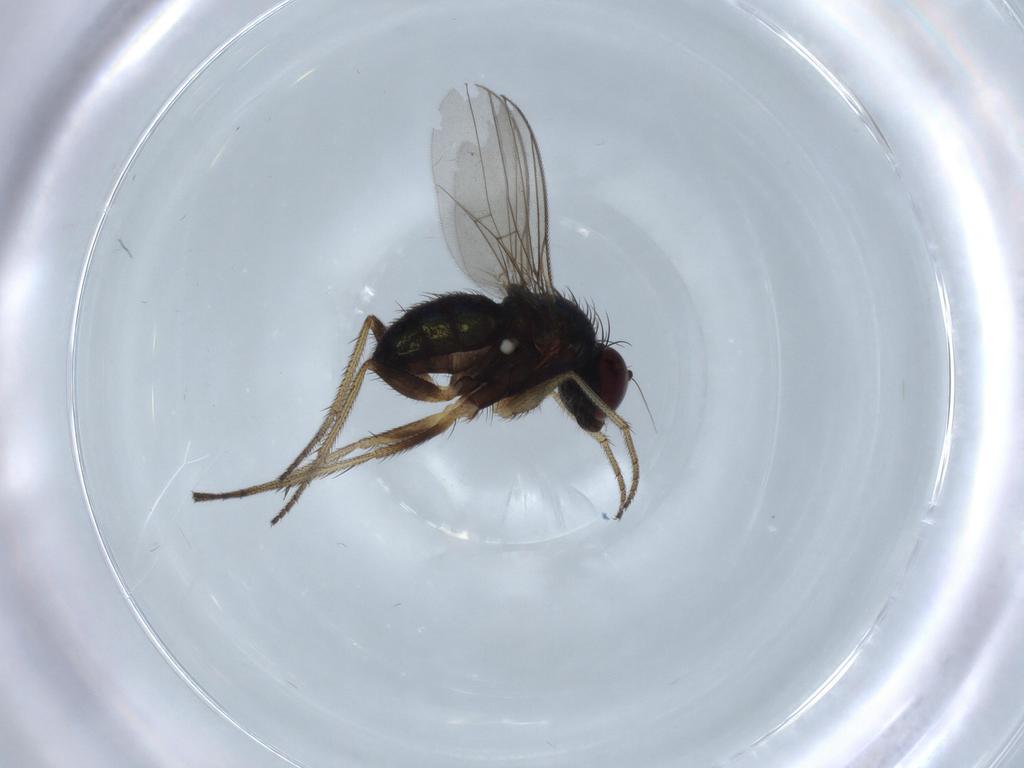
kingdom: Animalia
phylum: Arthropoda
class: Insecta
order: Diptera
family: Dolichopodidae
